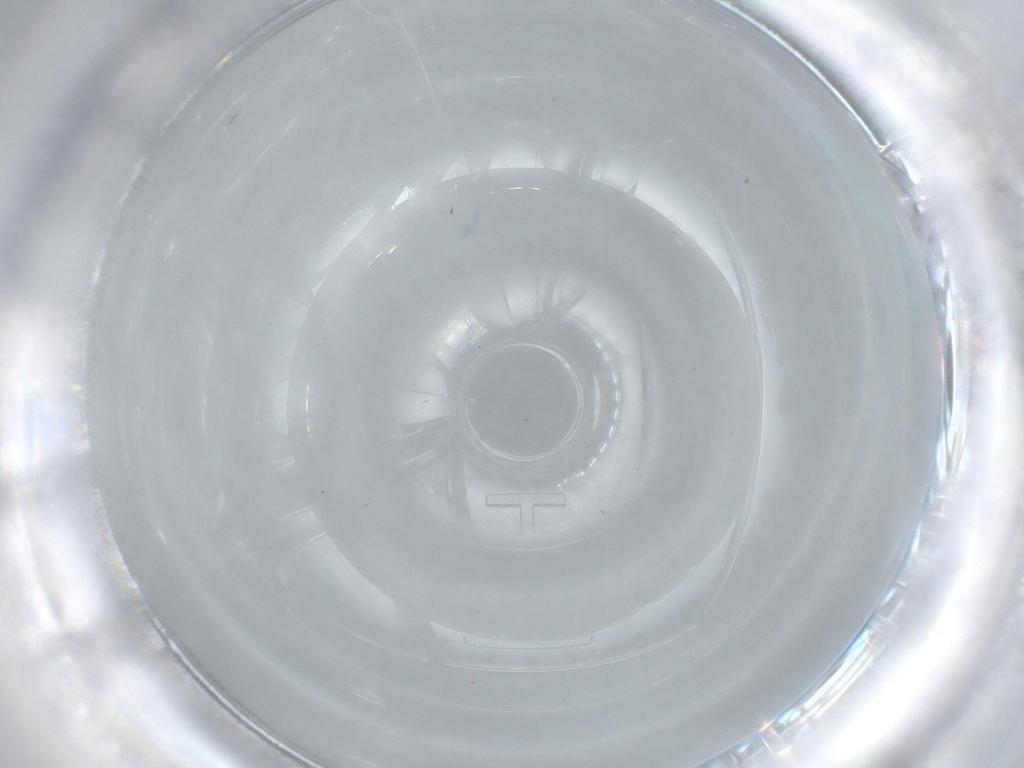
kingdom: Animalia
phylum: Arthropoda
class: Insecta
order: Diptera
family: Phoridae
